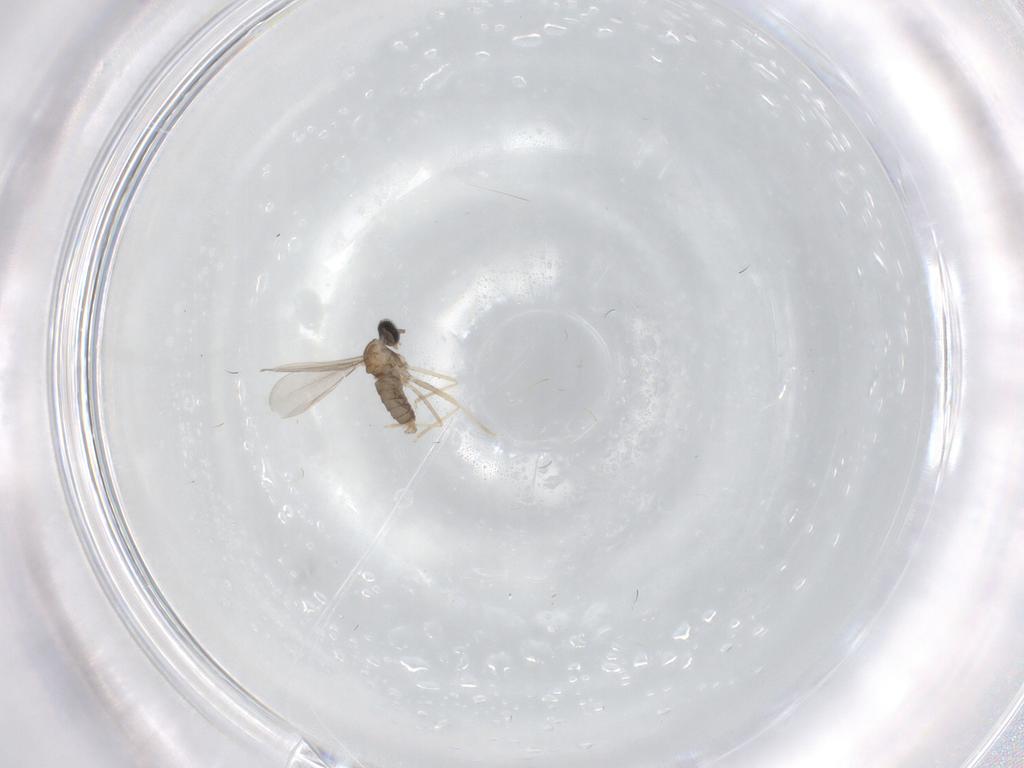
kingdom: Animalia
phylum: Arthropoda
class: Insecta
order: Diptera
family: Cecidomyiidae
